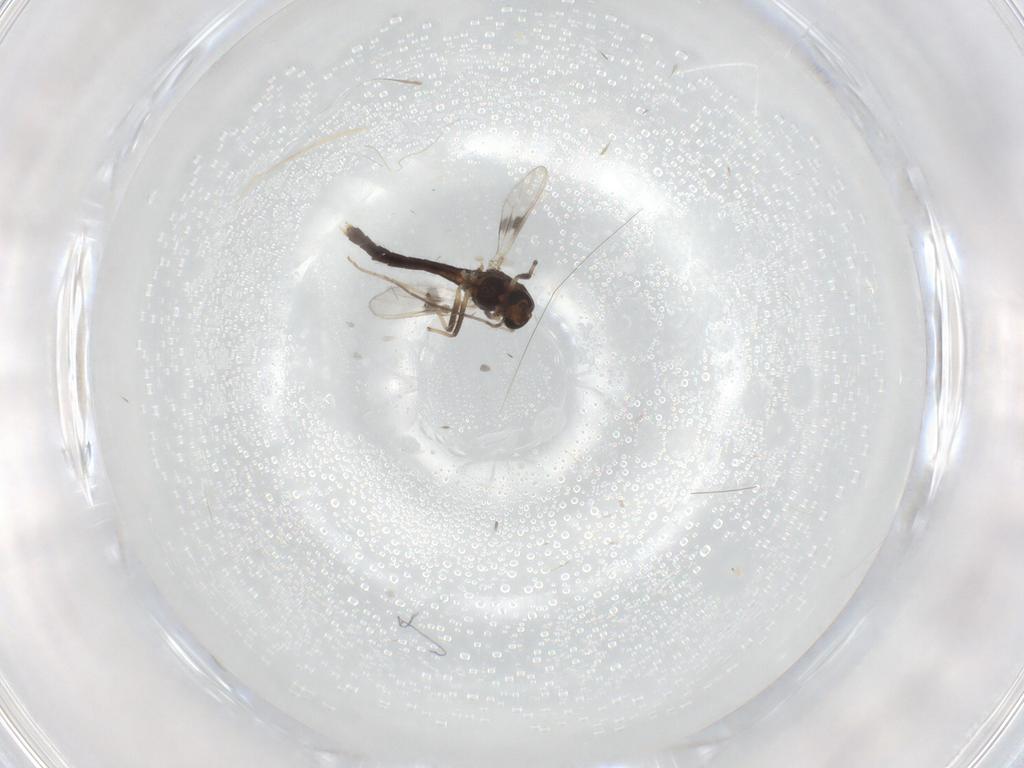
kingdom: Animalia
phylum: Arthropoda
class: Insecta
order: Diptera
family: Chironomidae
